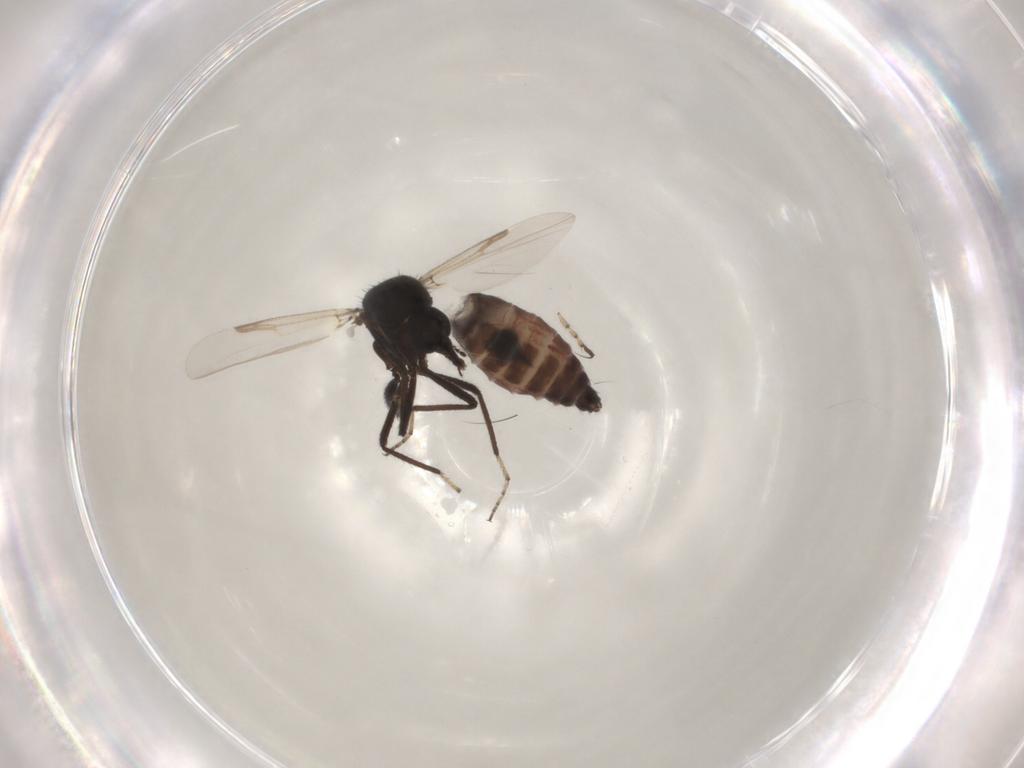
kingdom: Animalia
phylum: Arthropoda
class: Insecta
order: Diptera
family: Ceratopogonidae
